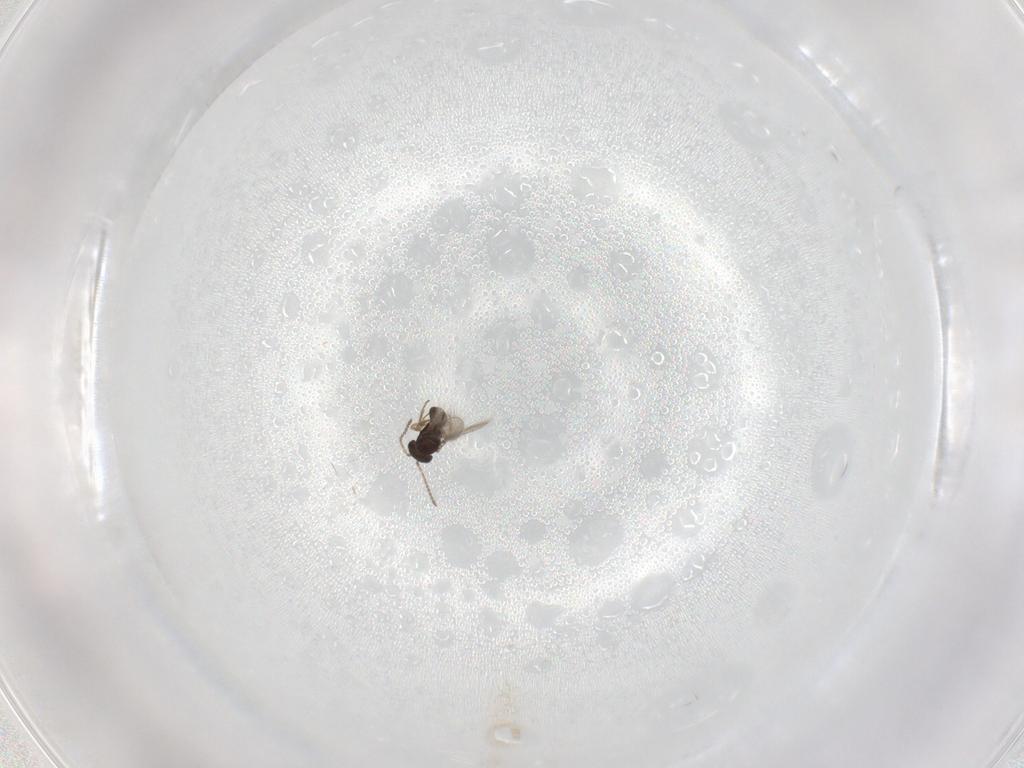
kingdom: Animalia
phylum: Arthropoda
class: Insecta
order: Hymenoptera
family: Scelionidae
